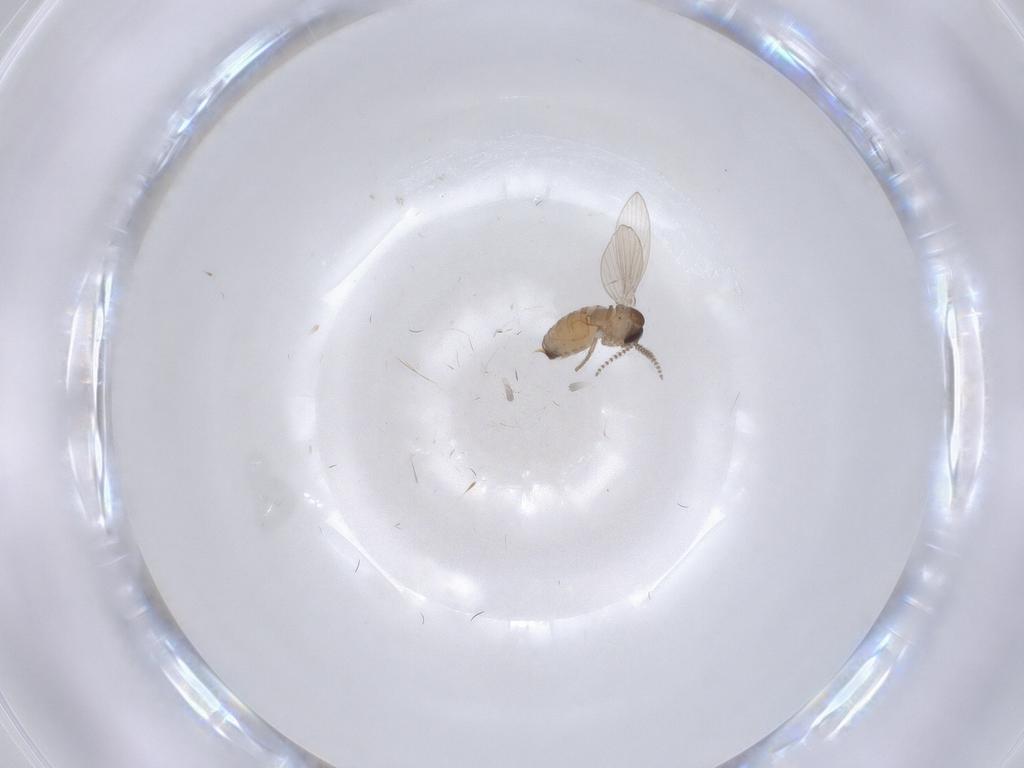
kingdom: Animalia
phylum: Arthropoda
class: Insecta
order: Diptera
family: Psychodidae
